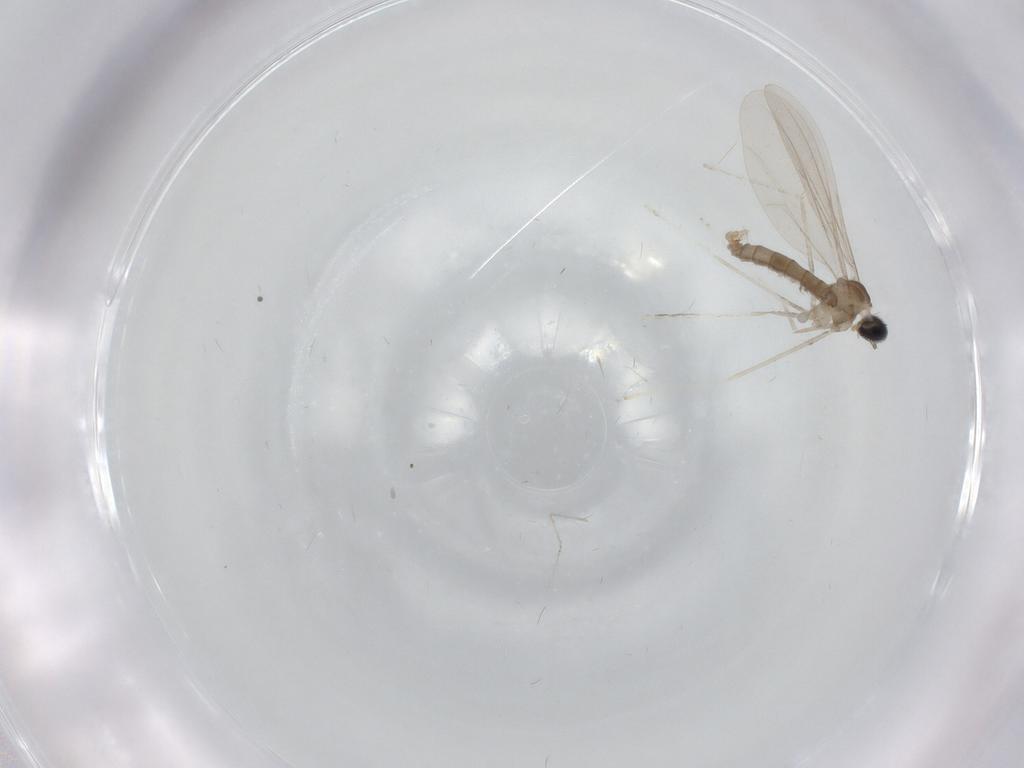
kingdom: Animalia
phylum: Arthropoda
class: Insecta
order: Diptera
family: Cecidomyiidae
